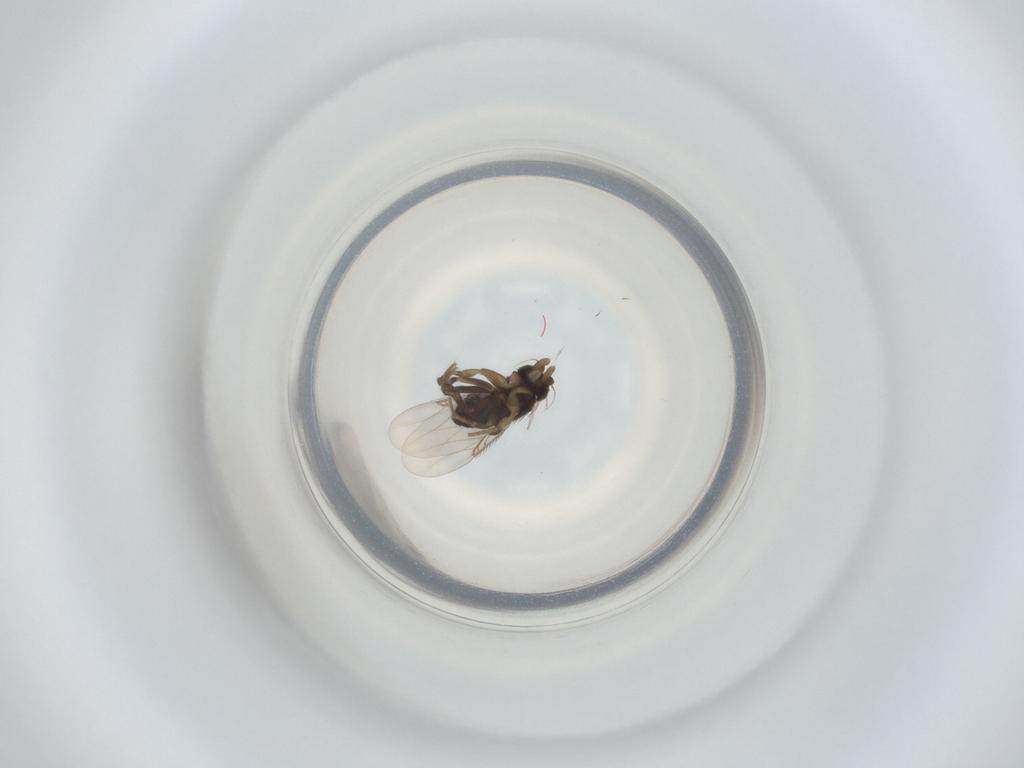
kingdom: Animalia
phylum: Arthropoda
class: Insecta
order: Diptera
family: Phoridae
